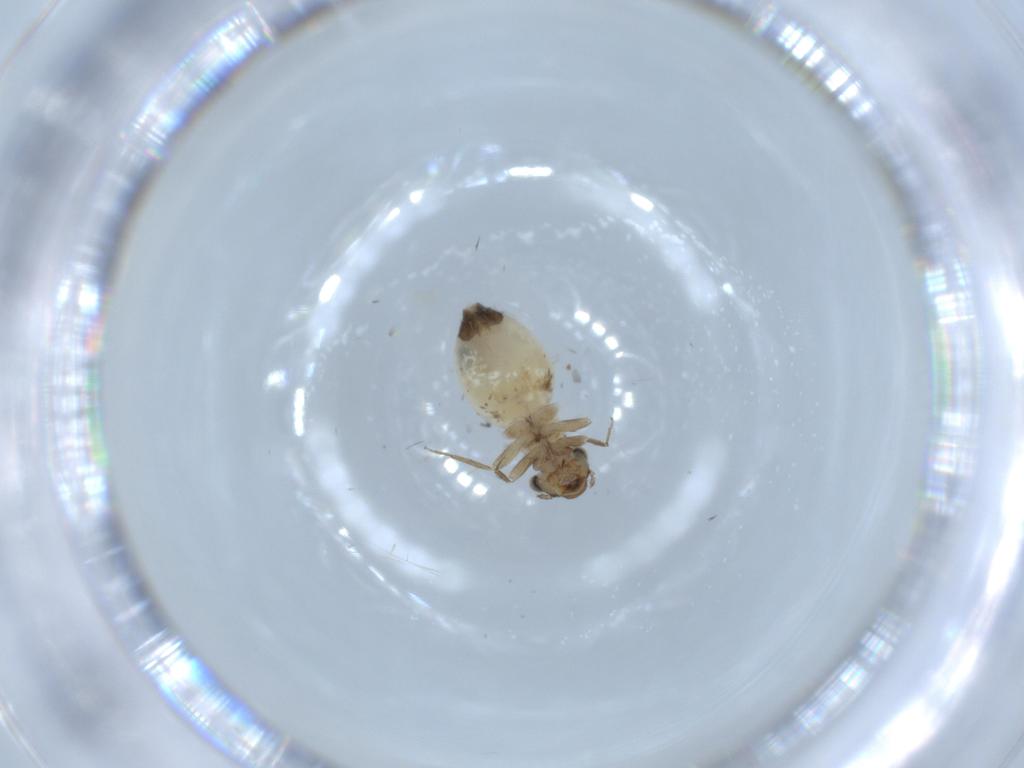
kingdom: Animalia
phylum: Arthropoda
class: Insecta
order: Psocodea
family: Lepidopsocidae
